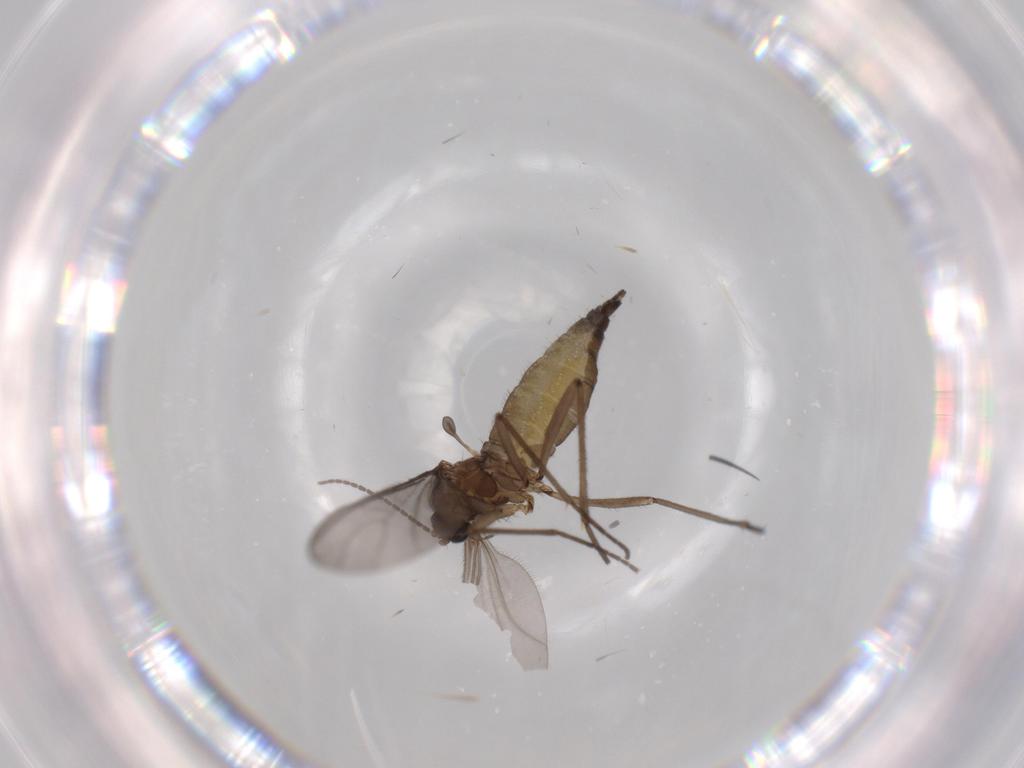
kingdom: Animalia
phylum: Arthropoda
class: Insecta
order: Diptera
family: Sciaridae
